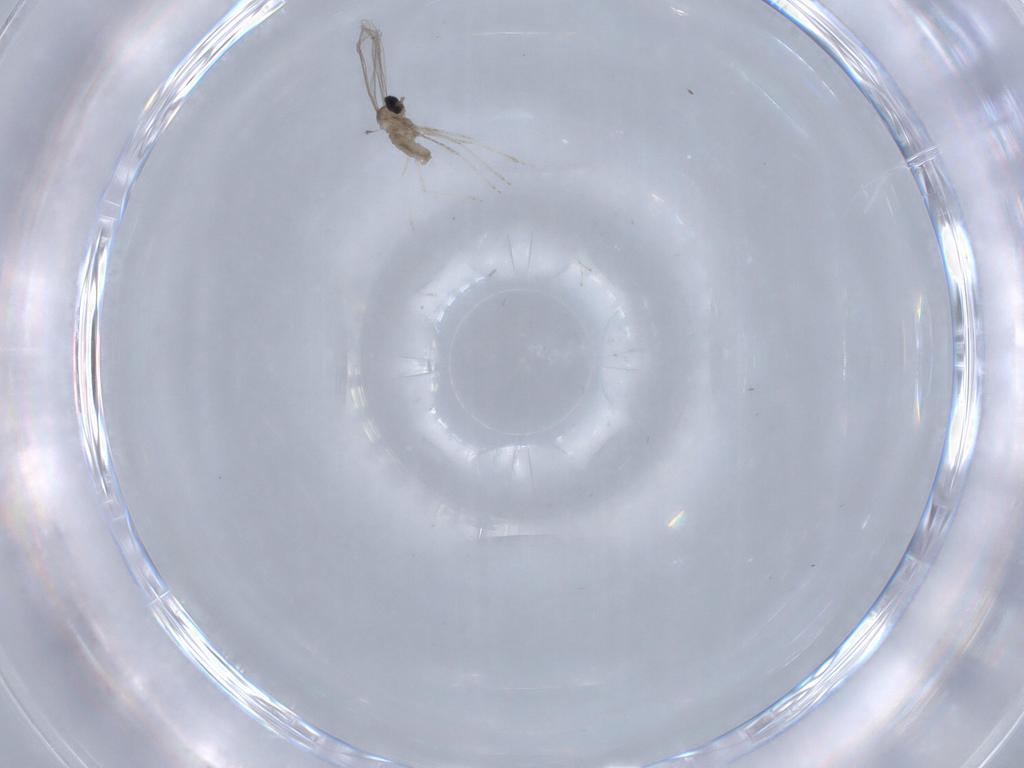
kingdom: Animalia
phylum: Arthropoda
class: Insecta
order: Diptera
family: Cecidomyiidae
